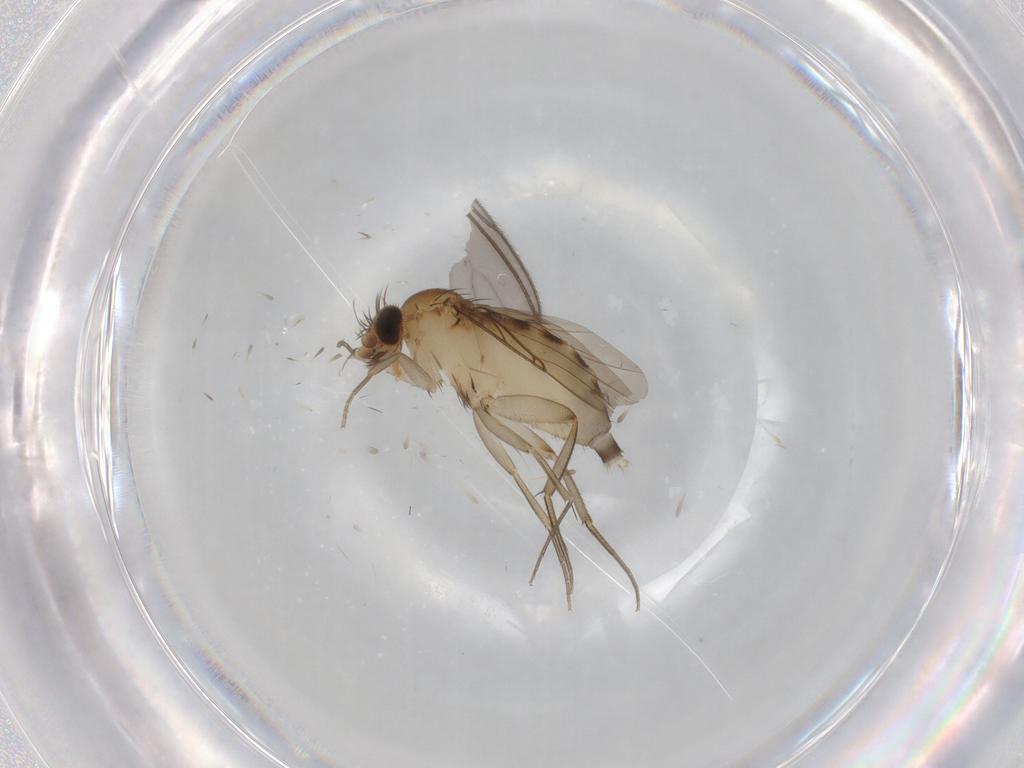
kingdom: Animalia
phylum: Arthropoda
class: Insecta
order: Diptera
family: Phoridae
